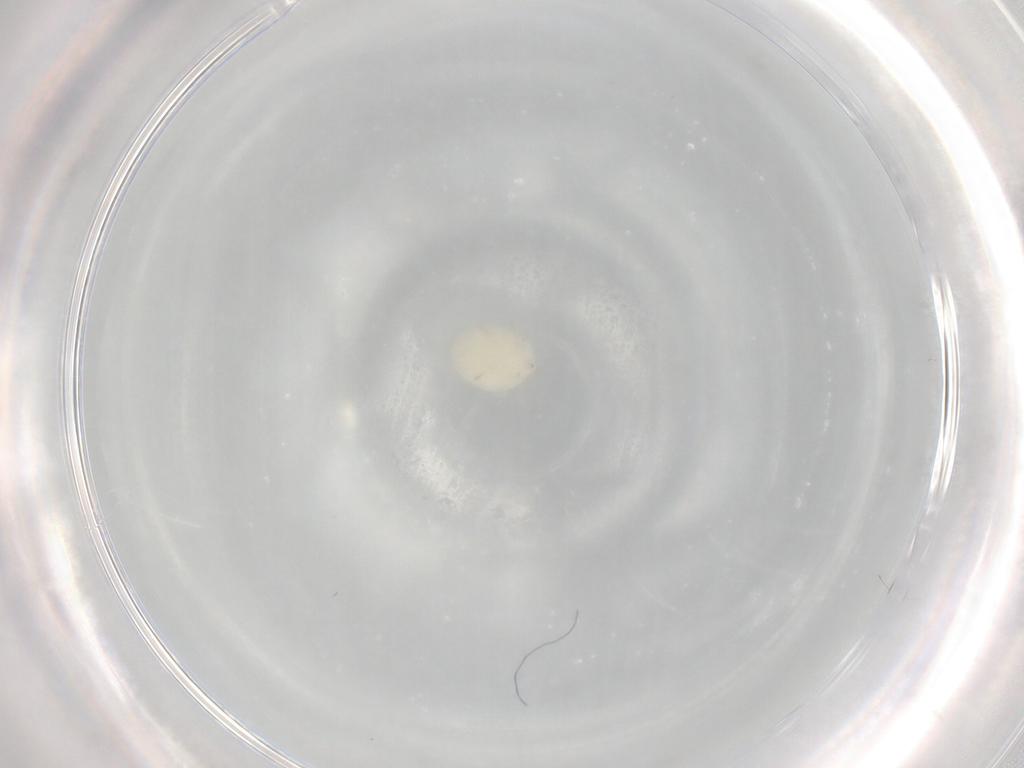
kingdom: Animalia
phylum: Arthropoda
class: Arachnida
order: Trombidiformes
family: Microtrombidiidae
